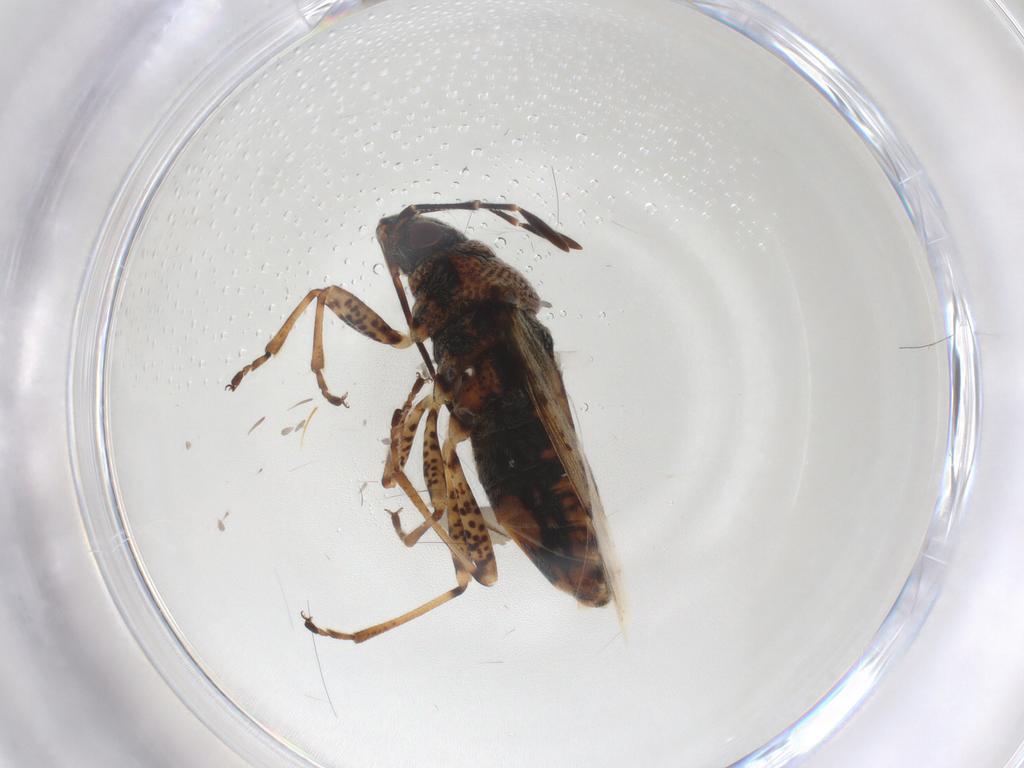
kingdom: Animalia
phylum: Arthropoda
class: Insecta
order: Hemiptera
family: Lygaeidae
